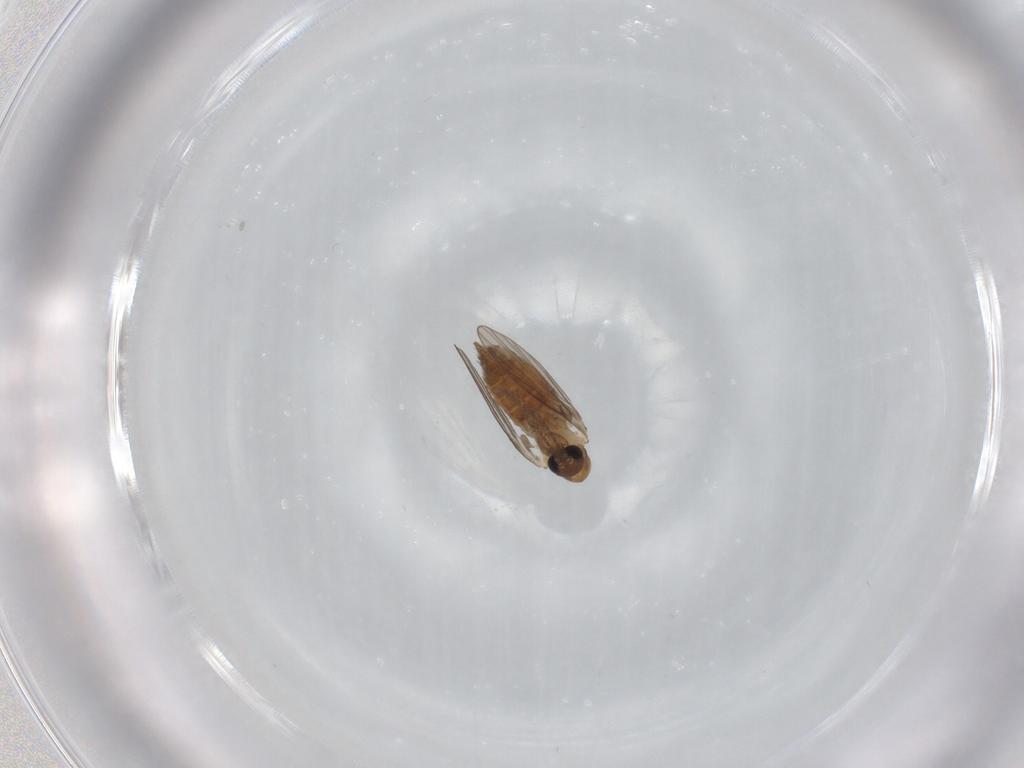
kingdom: Animalia
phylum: Arthropoda
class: Insecta
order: Diptera
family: Psychodidae
